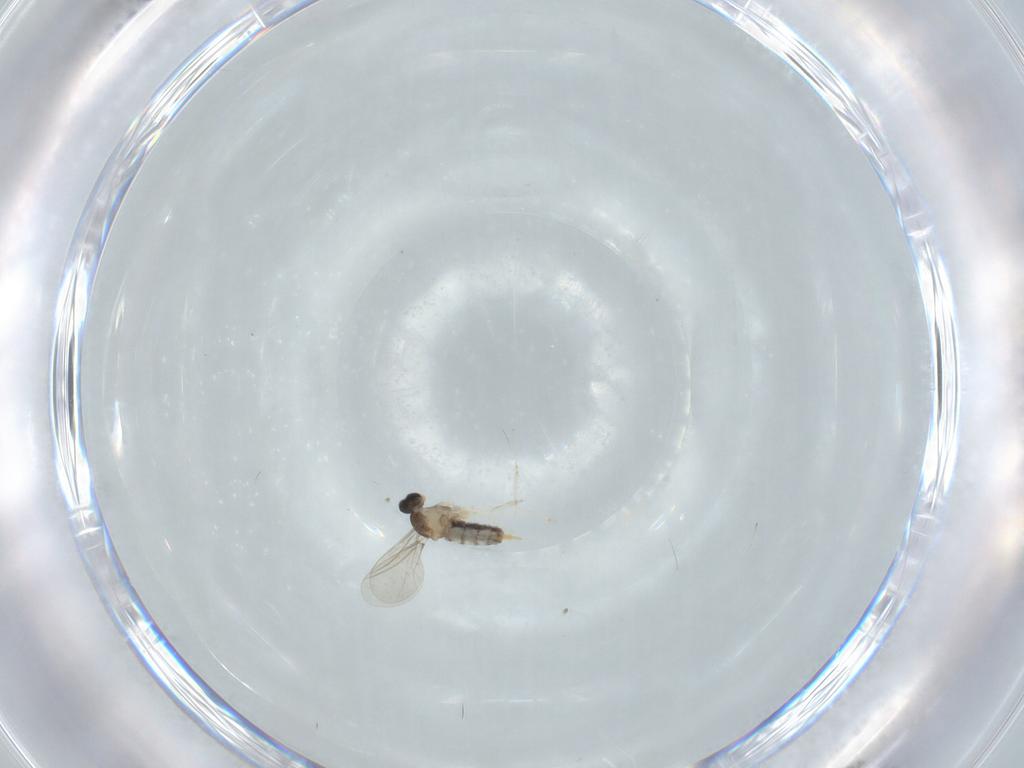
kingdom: Animalia
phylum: Arthropoda
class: Insecta
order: Diptera
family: Cecidomyiidae
